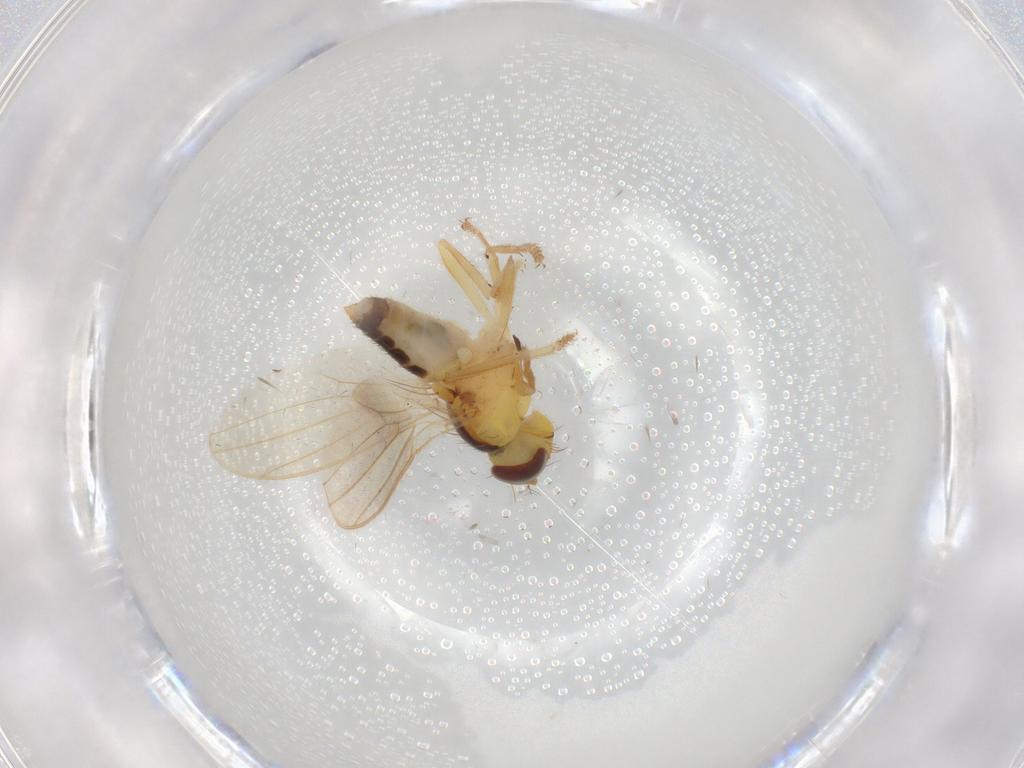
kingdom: Animalia
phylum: Arthropoda
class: Insecta
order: Diptera
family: Periscelididae
